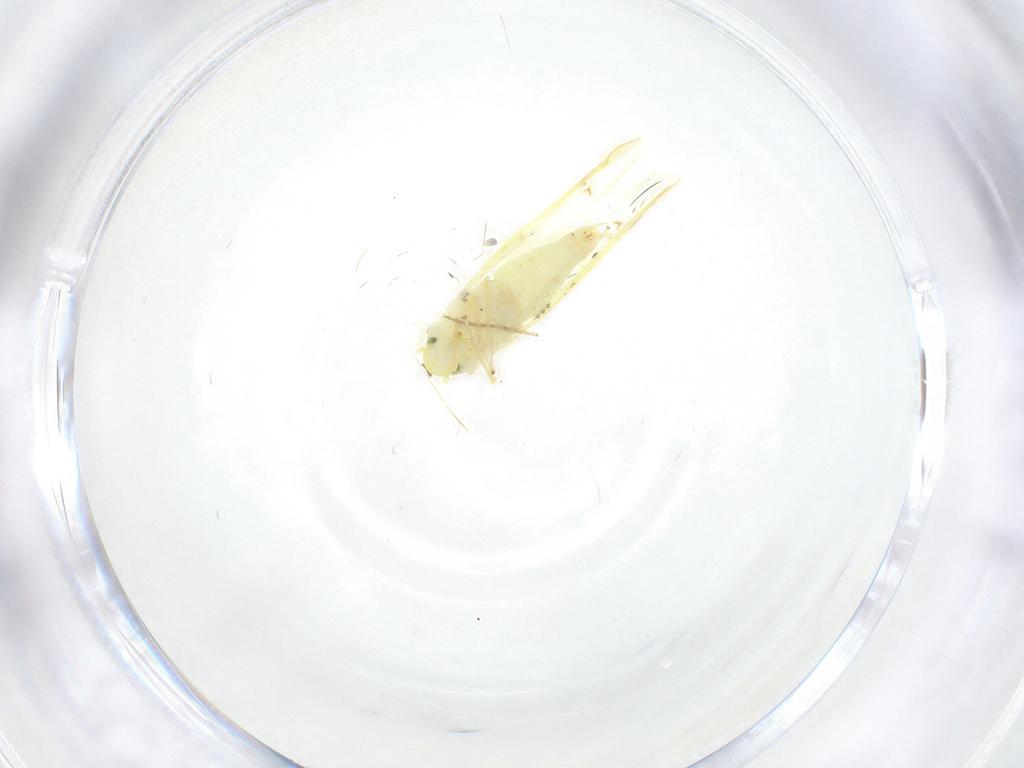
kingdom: Animalia
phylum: Arthropoda
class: Insecta
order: Hemiptera
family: Cicadellidae
